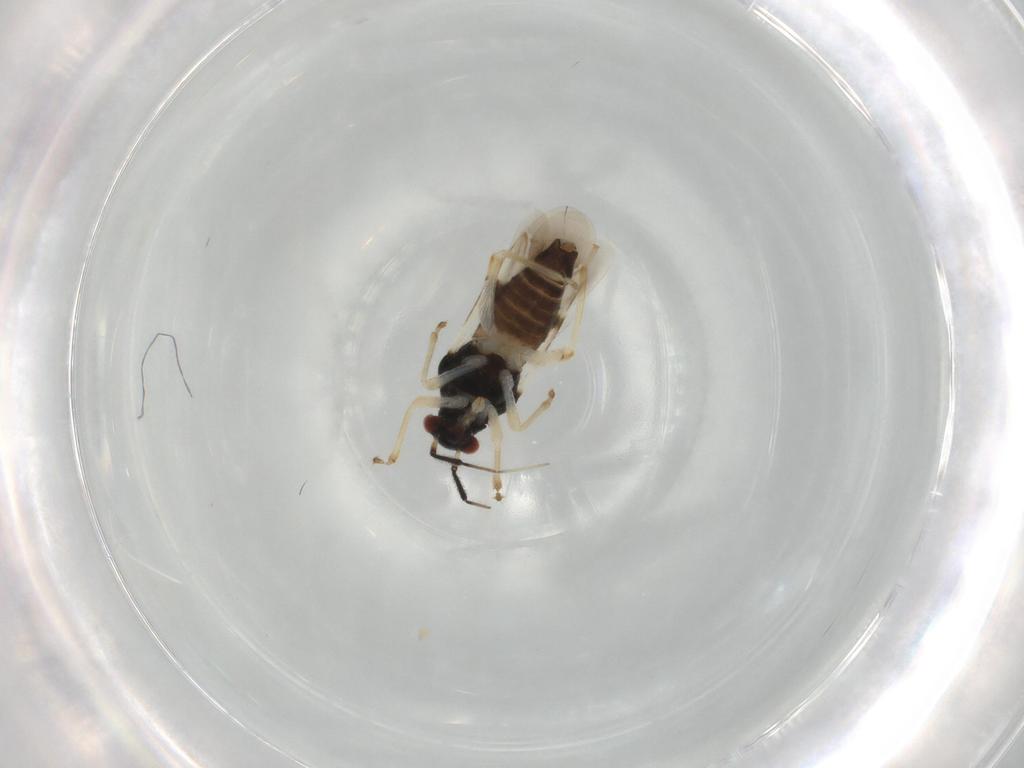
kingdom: Animalia
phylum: Arthropoda
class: Insecta
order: Hemiptera
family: Miridae
